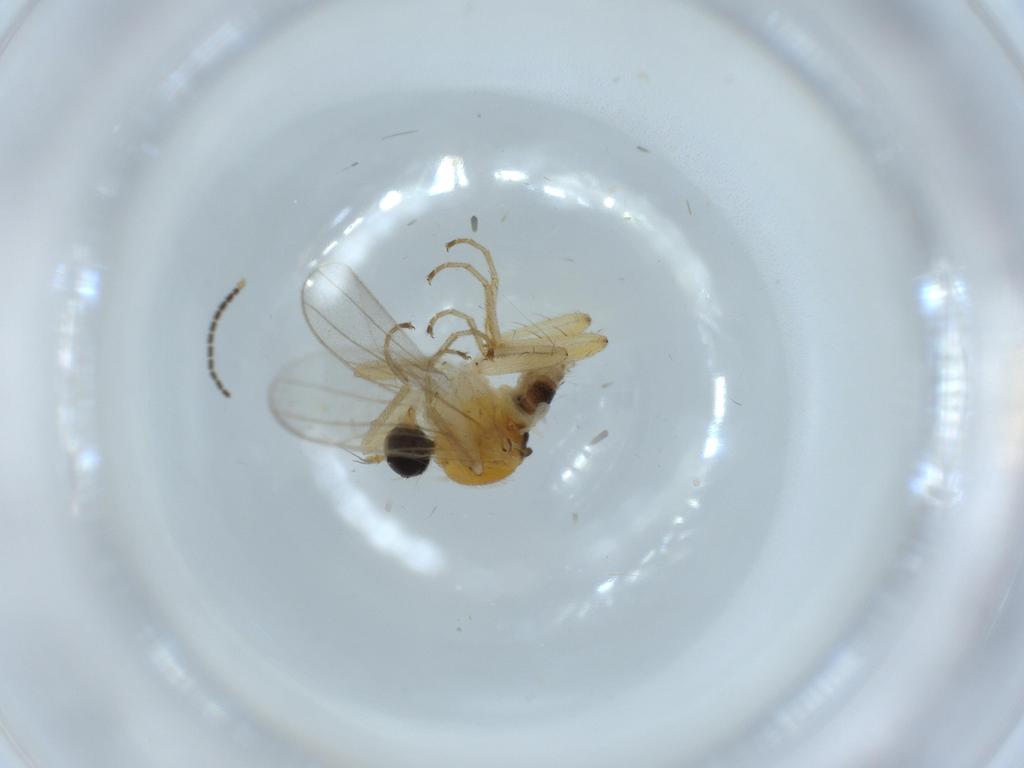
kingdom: Animalia
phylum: Arthropoda
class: Insecta
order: Diptera
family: Hybotidae
